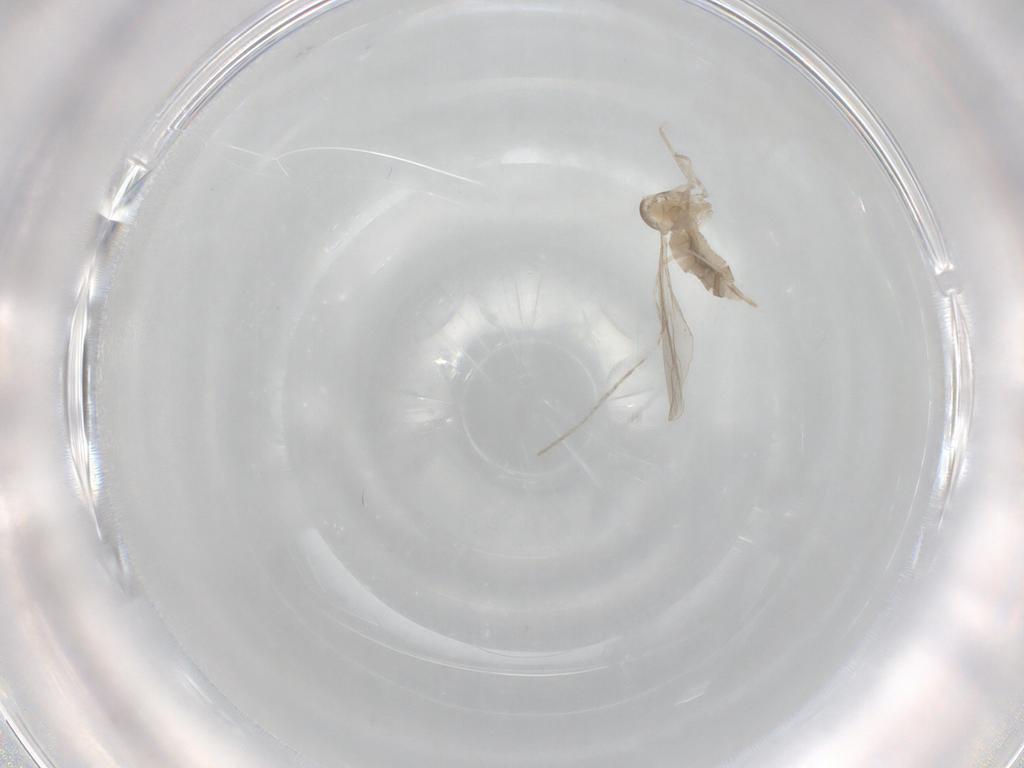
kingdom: Animalia
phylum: Arthropoda
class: Insecta
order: Diptera
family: Cecidomyiidae
